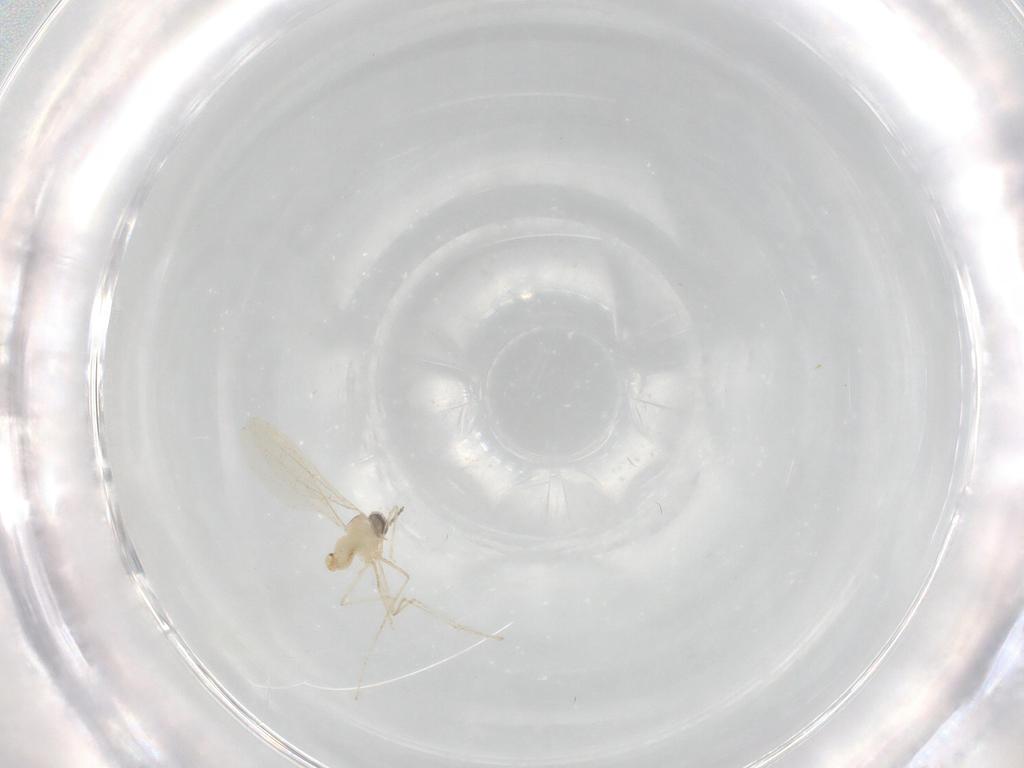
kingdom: Animalia
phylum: Arthropoda
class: Insecta
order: Diptera
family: Cecidomyiidae
